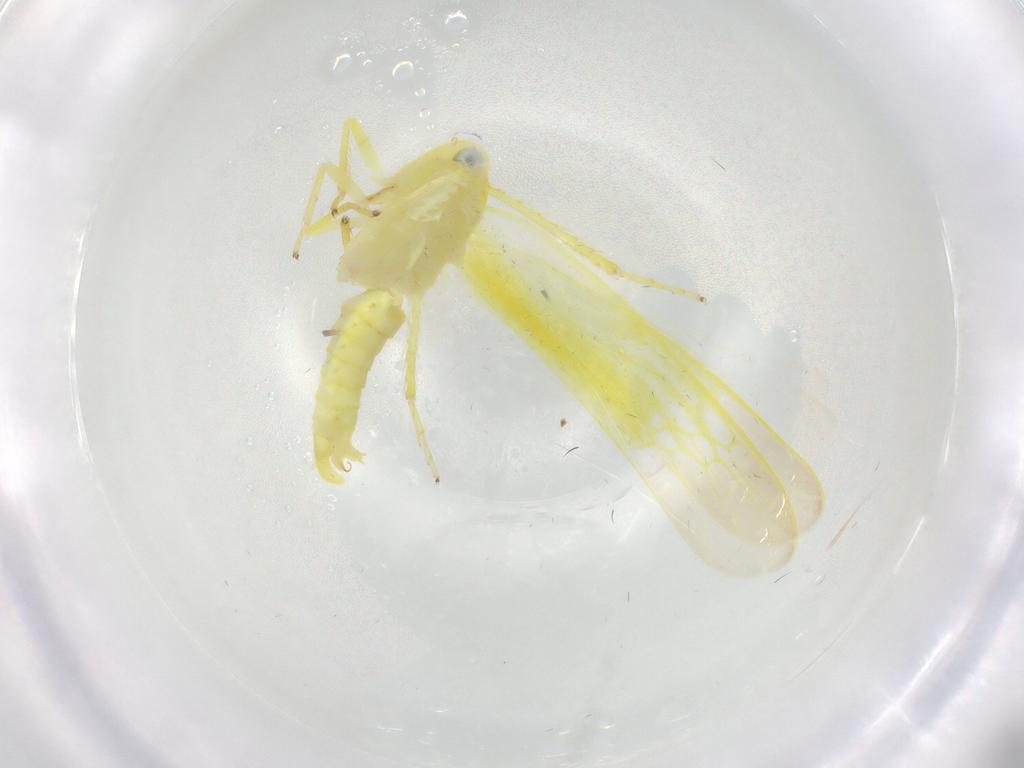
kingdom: Animalia
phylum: Arthropoda
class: Insecta
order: Hemiptera
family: Cicadellidae
